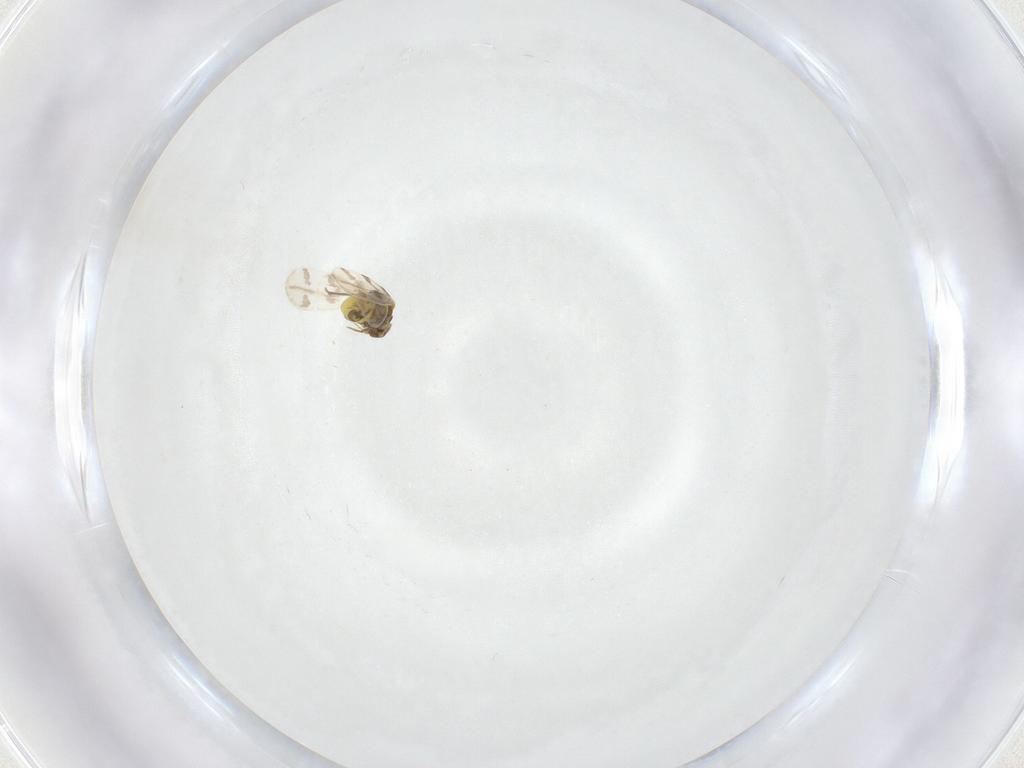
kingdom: Animalia
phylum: Arthropoda
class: Insecta
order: Hemiptera
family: Miridae
